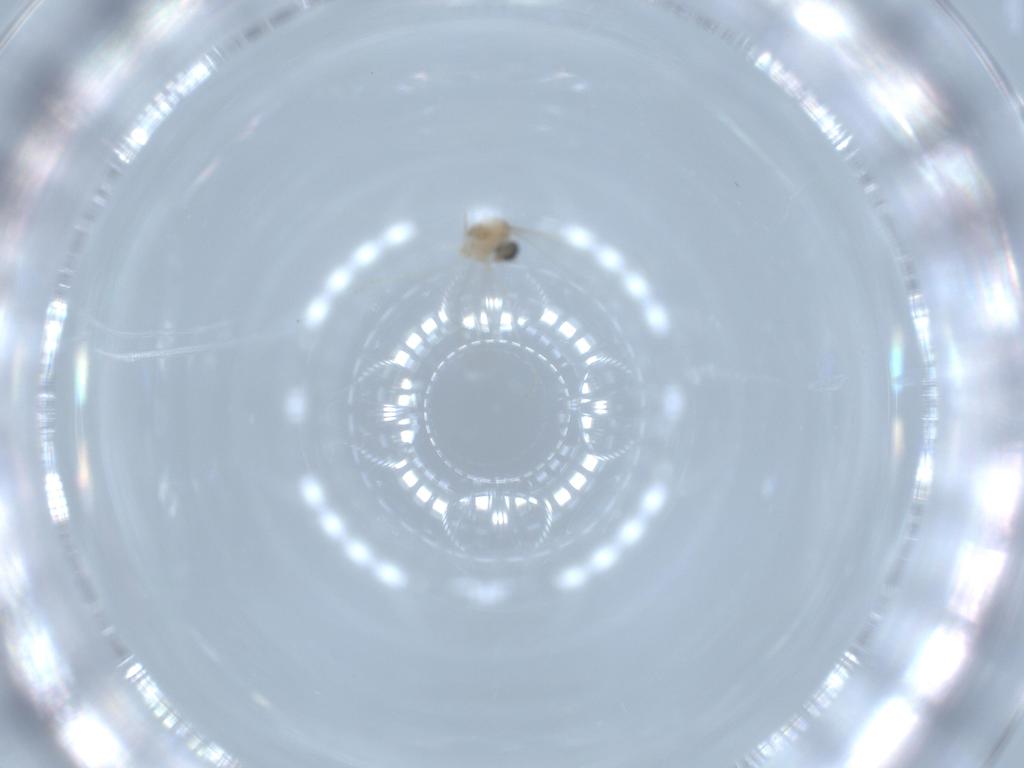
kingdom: Animalia
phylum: Arthropoda
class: Insecta
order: Diptera
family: Cecidomyiidae
